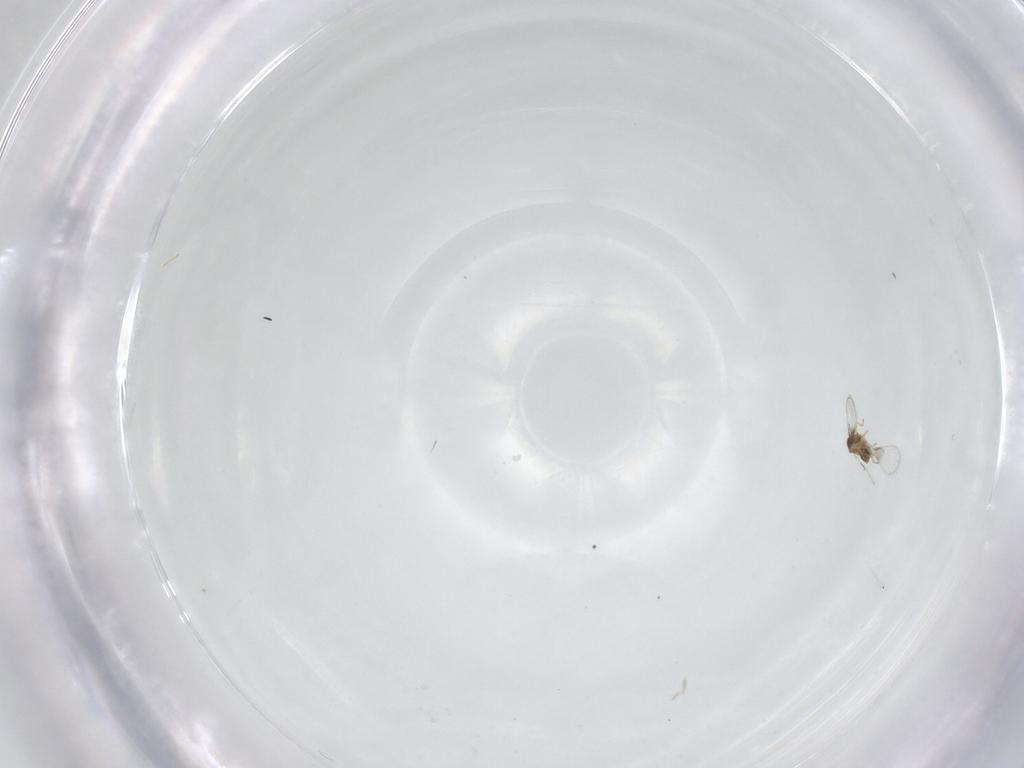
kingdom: Animalia
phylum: Arthropoda
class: Insecta
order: Hymenoptera
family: Trichogrammatidae
